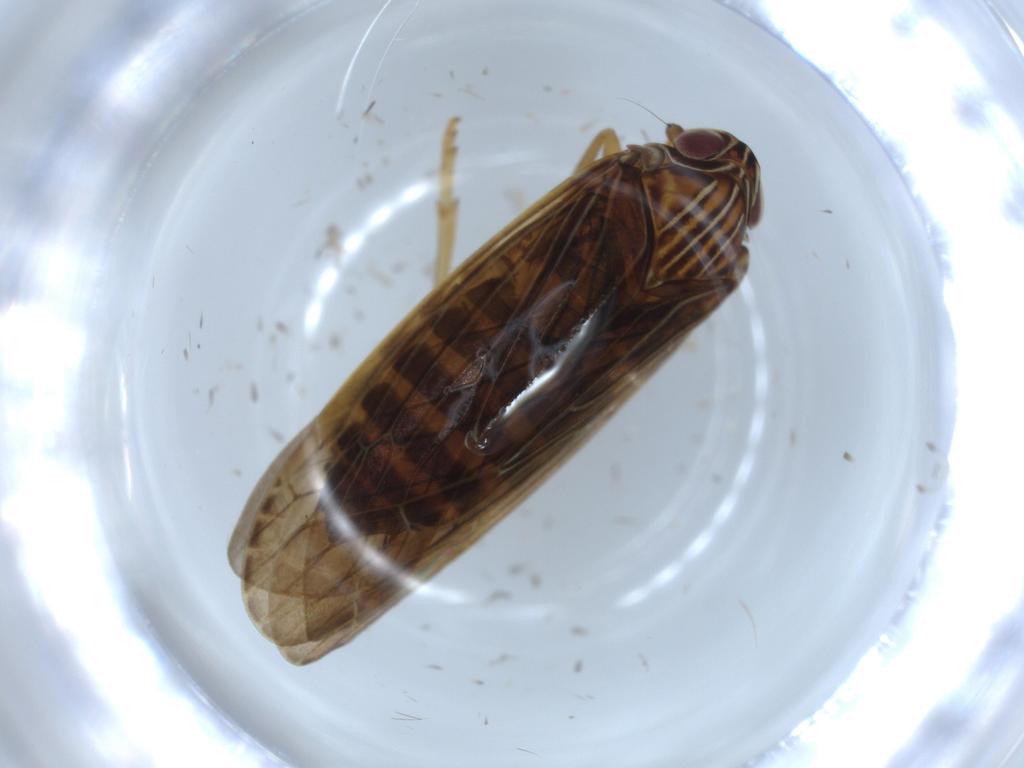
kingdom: Animalia
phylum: Arthropoda
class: Insecta
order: Hemiptera
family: Achilidae
